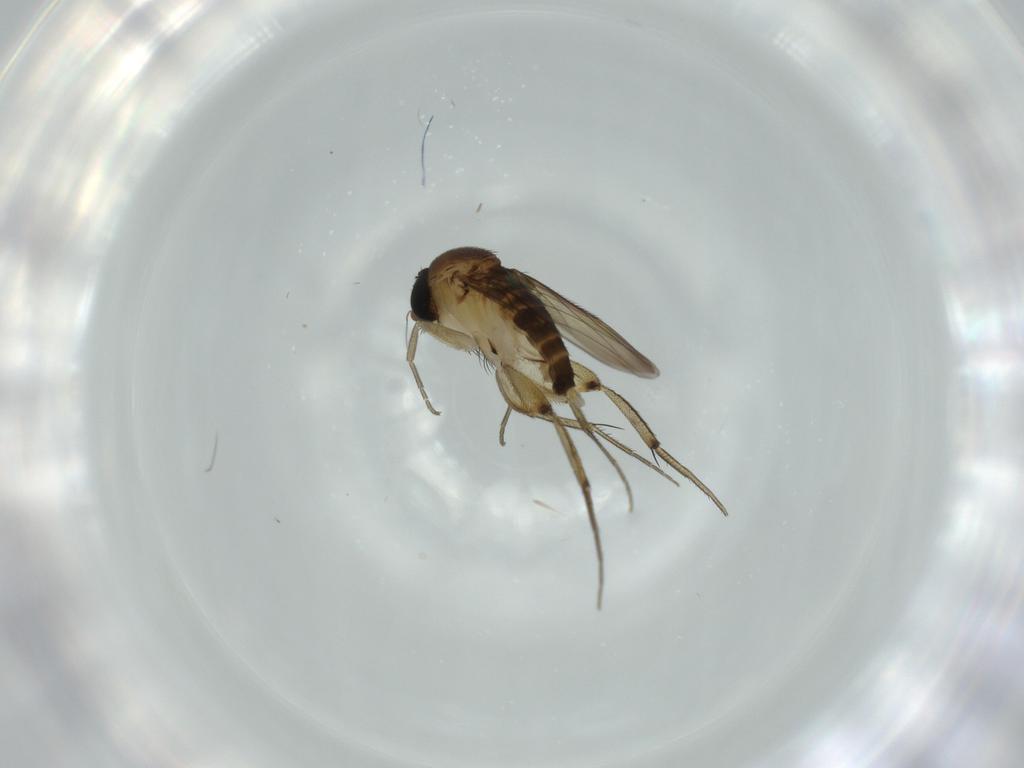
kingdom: Animalia
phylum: Arthropoda
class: Insecta
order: Diptera
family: Phoridae
